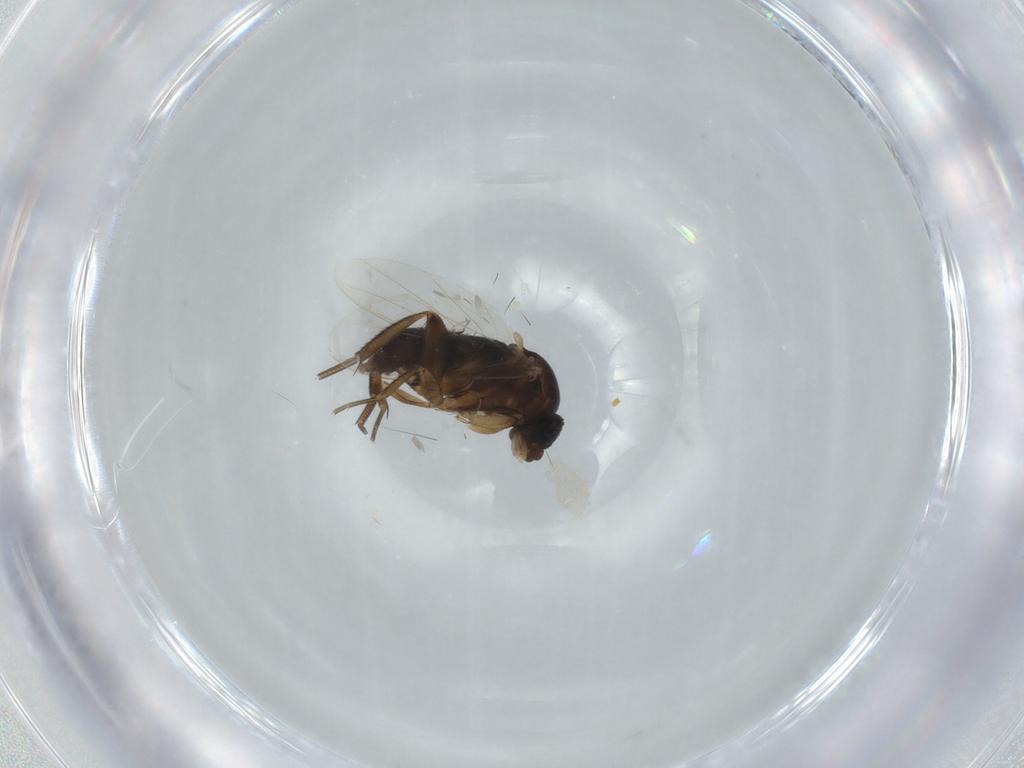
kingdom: Animalia
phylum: Arthropoda
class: Insecta
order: Diptera
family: Phoridae
